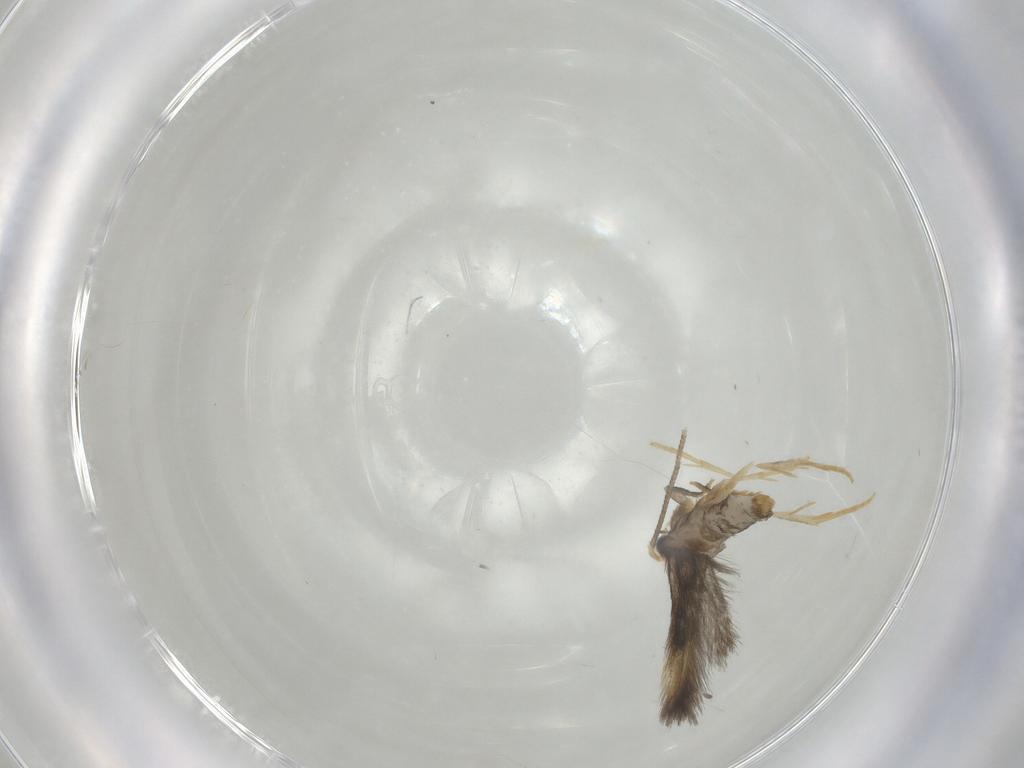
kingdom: Animalia
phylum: Arthropoda
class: Insecta
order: Lepidoptera
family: Nepticulidae
